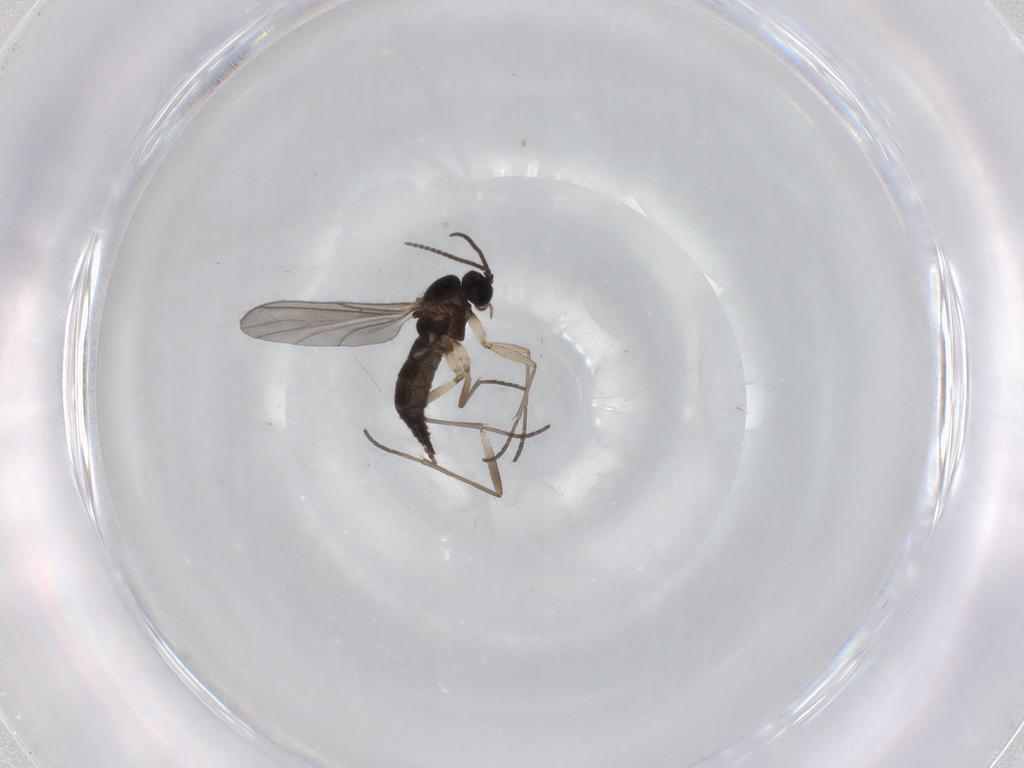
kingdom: Animalia
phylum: Arthropoda
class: Insecta
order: Diptera
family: Sciaridae
